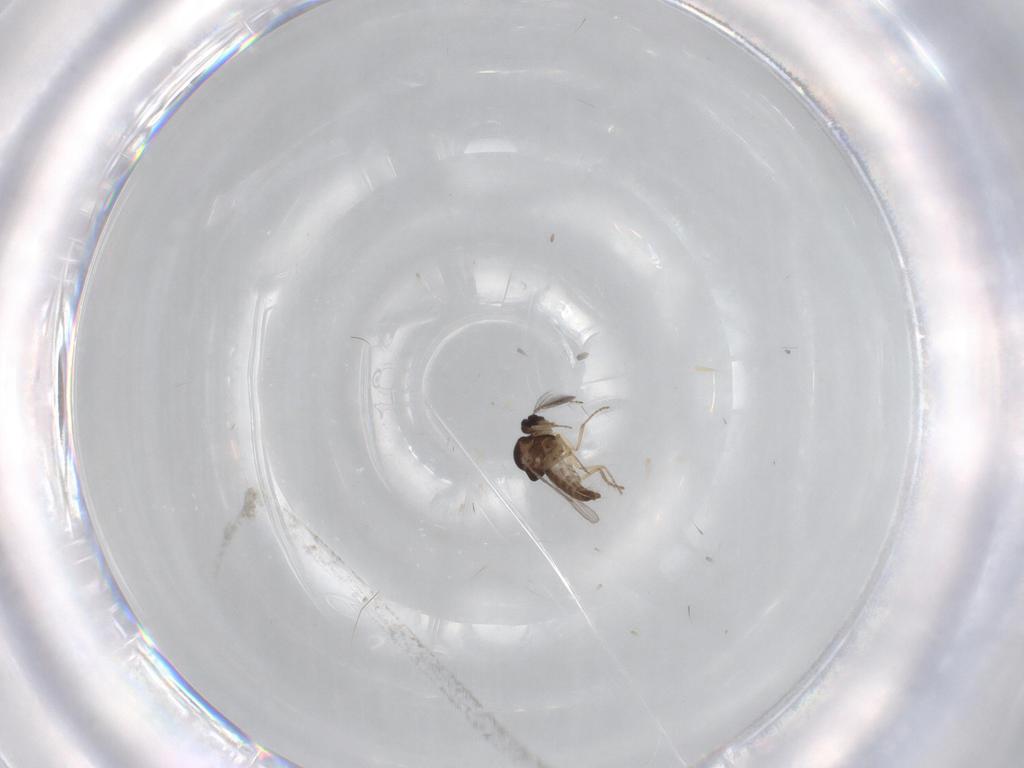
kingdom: Animalia
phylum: Arthropoda
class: Insecta
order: Diptera
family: Ceratopogonidae
